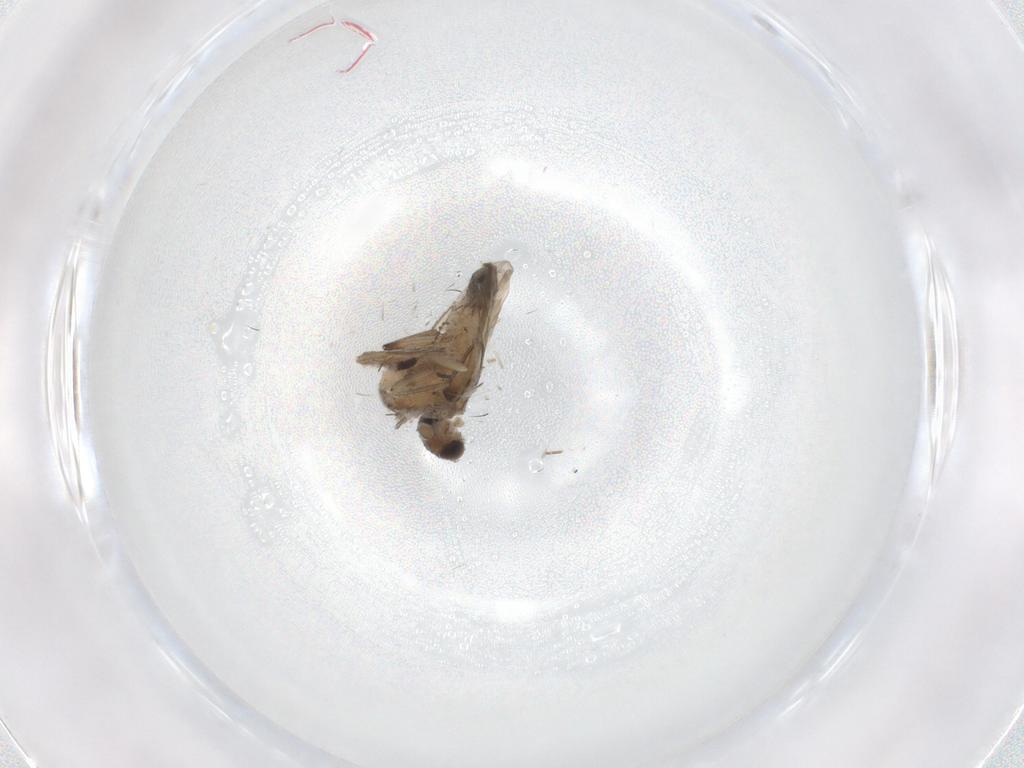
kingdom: Animalia
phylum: Arthropoda
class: Insecta
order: Diptera
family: Cecidomyiidae
